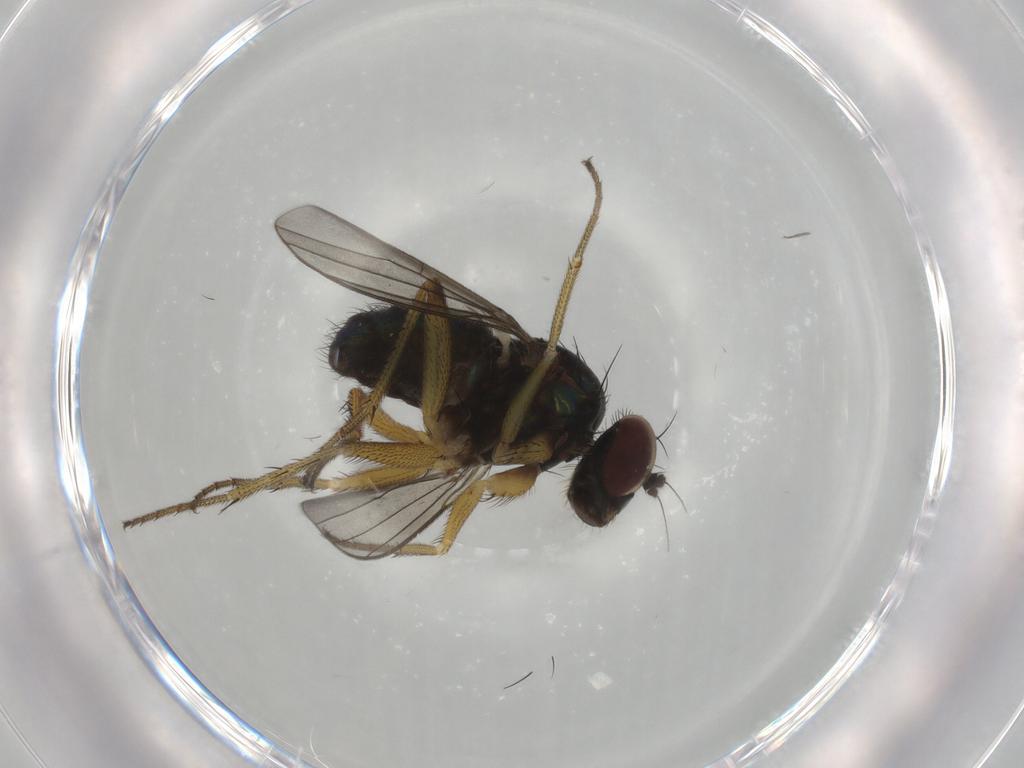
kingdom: Animalia
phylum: Arthropoda
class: Insecta
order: Diptera
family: Dolichopodidae
